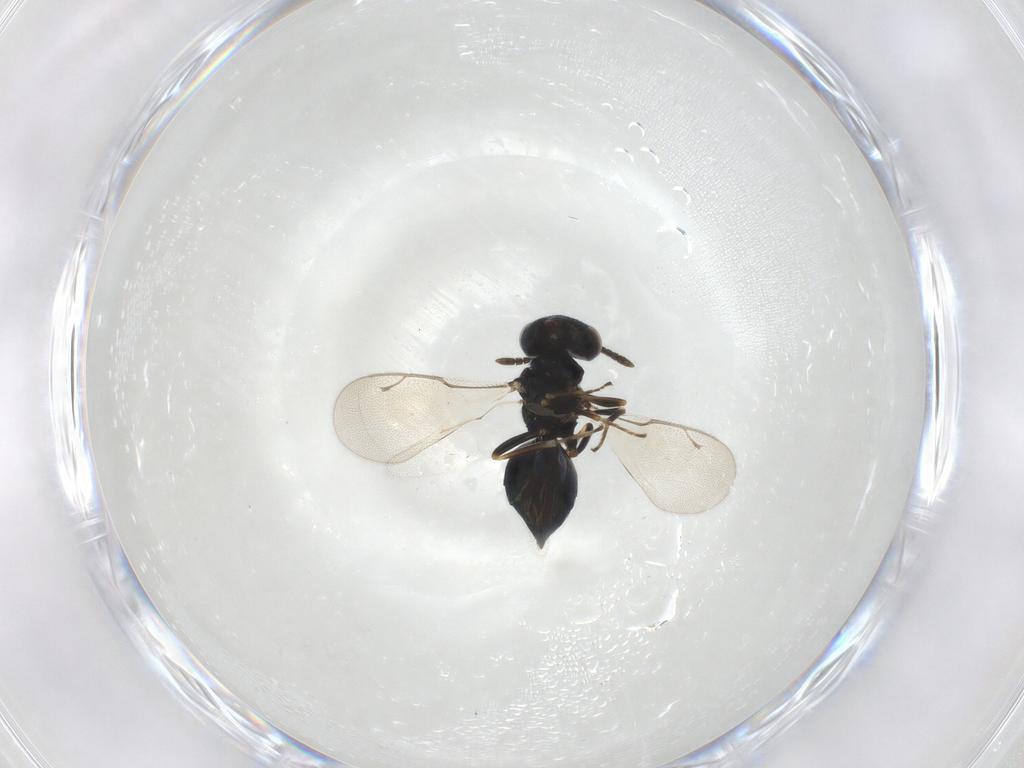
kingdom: Animalia
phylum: Arthropoda
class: Insecta
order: Hymenoptera
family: Pteromalidae
